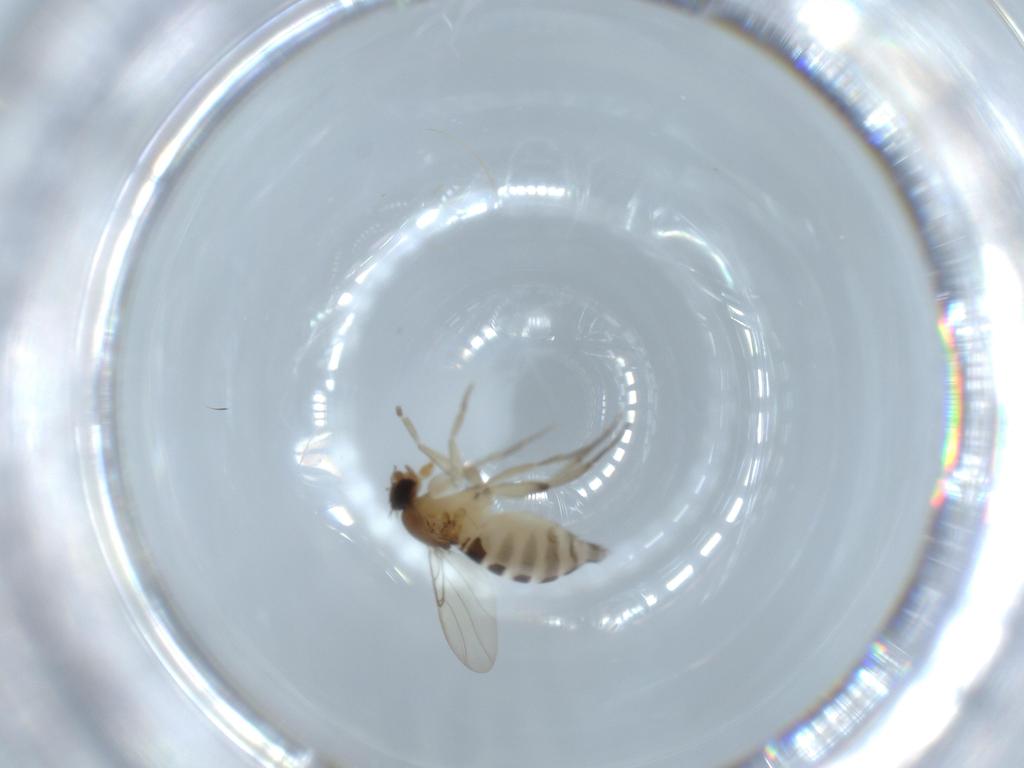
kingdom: Animalia
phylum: Arthropoda
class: Insecta
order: Diptera
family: Phoridae
